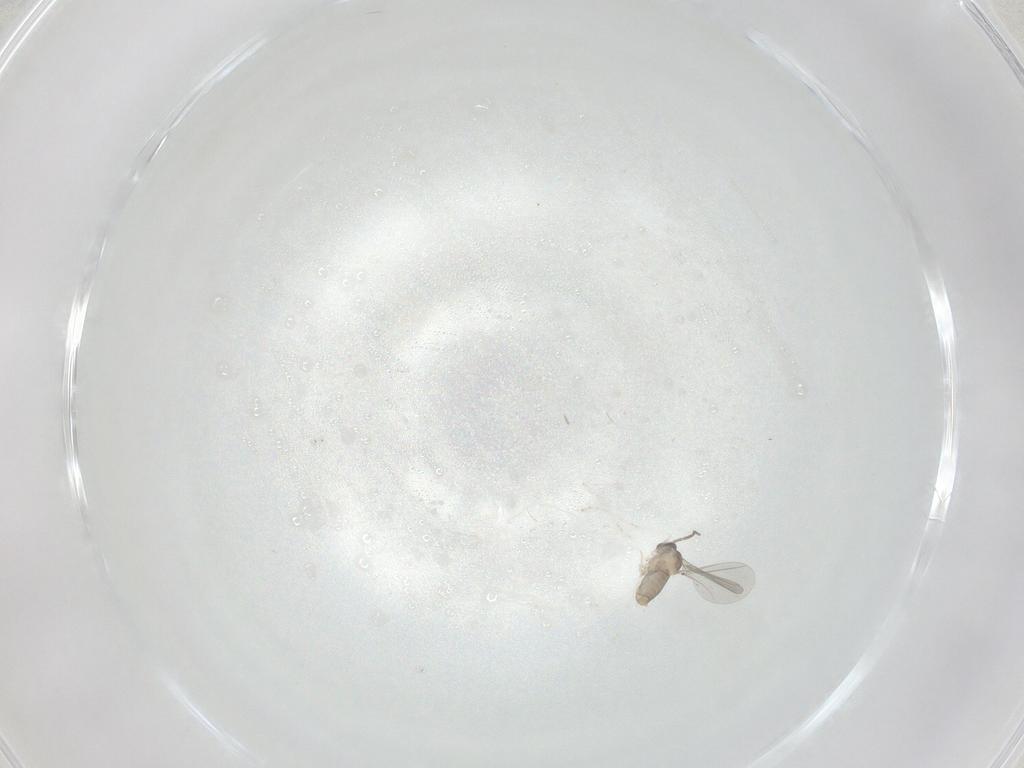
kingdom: Animalia
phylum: Arthropoda
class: Insecta
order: Diptera
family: Cecidomyiidae
